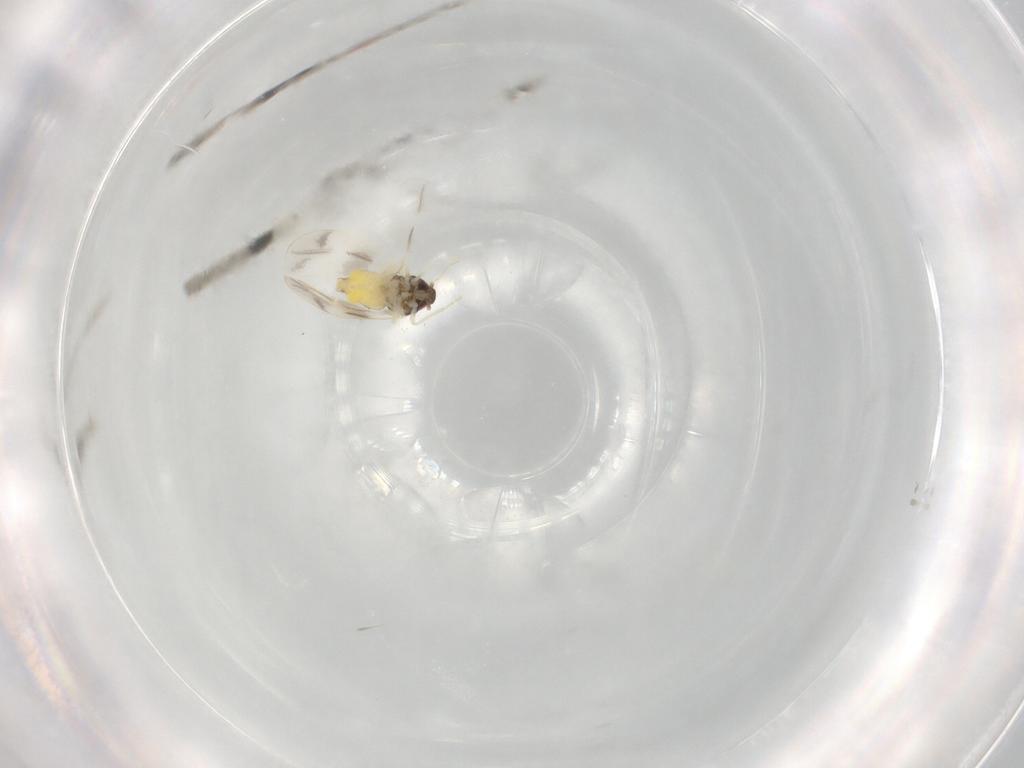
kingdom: Animalia
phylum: Arthropoda
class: Insecta
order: Hemiptera
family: Aleyrodidae
